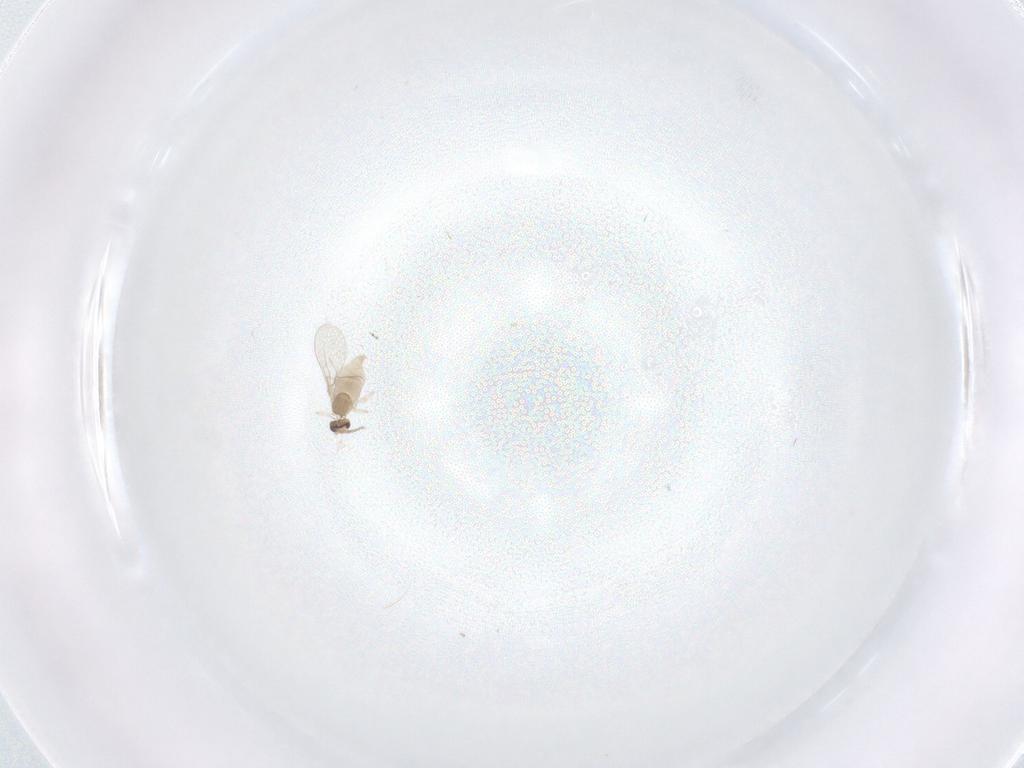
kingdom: Animalia
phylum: Arthropoda
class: Insecta
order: Diptera
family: Cecidomyiidae
